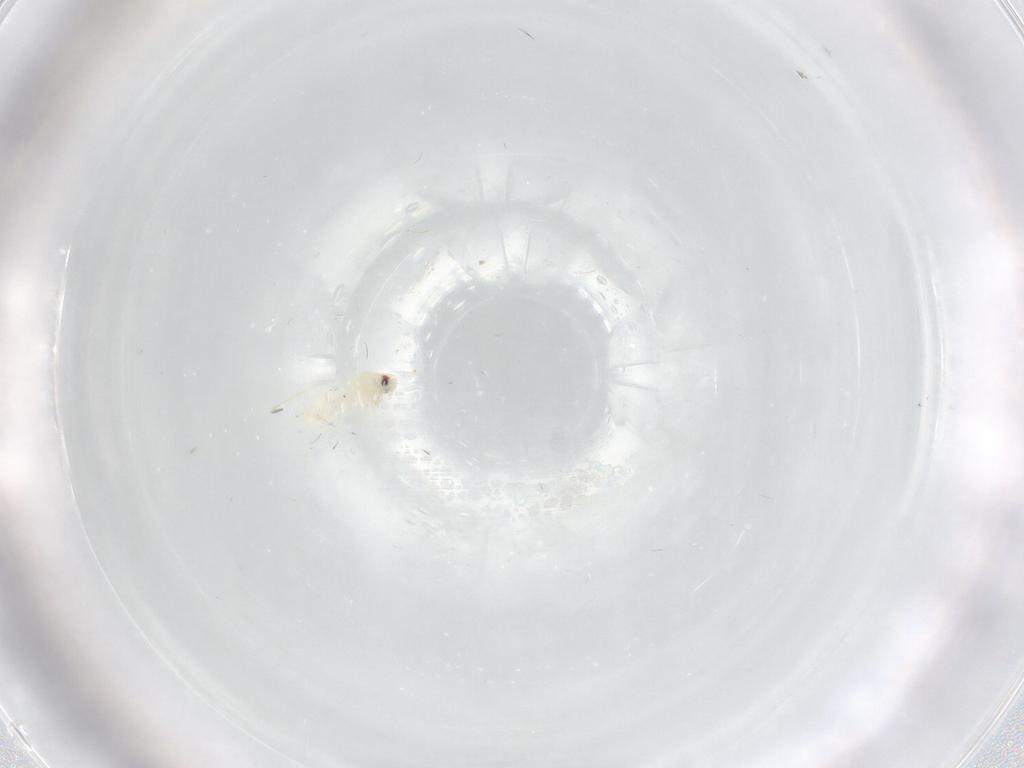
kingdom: Animalia
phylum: Arthropoda
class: Insecta
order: Hemiptera
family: Aleyrodidae
